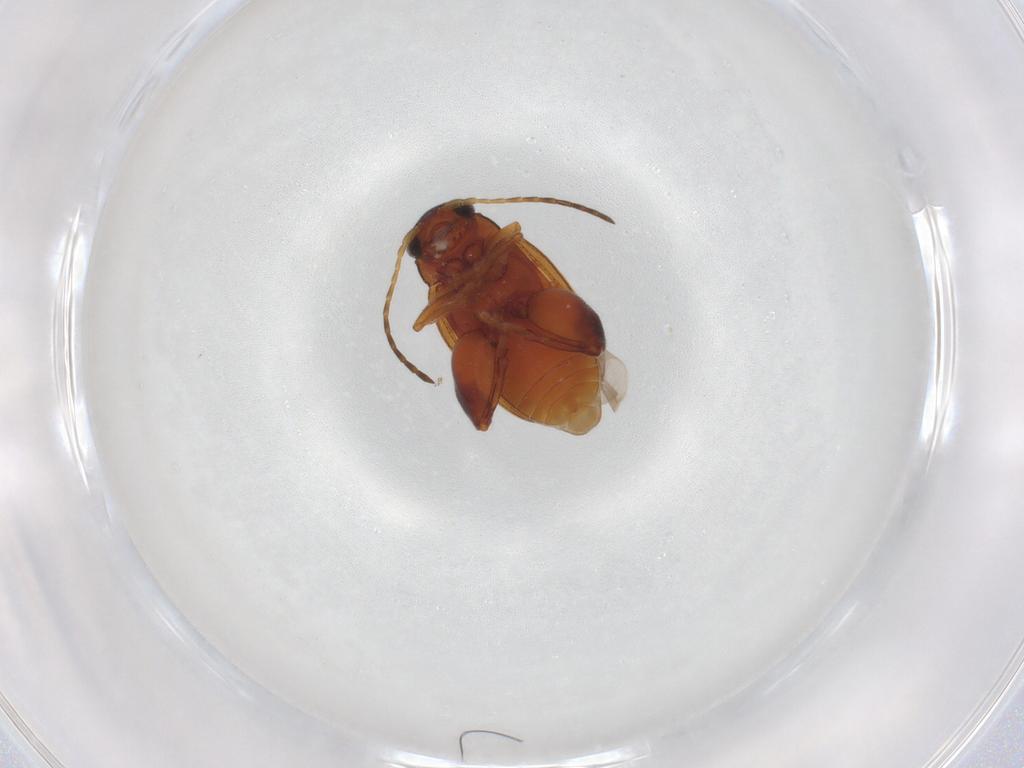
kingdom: Animalia
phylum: Arthropoda
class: Insecta
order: Coleoptera
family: Chrysomelidae
